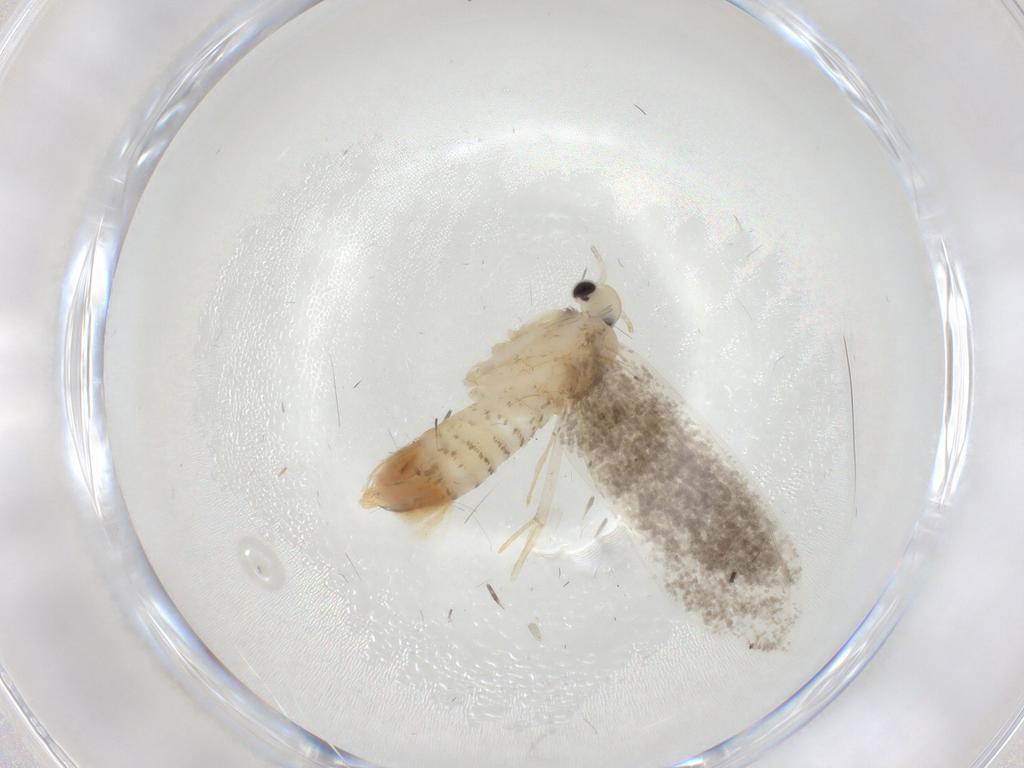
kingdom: Animalia
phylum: Arthropoda
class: Insecta
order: Lepidoptera
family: Psychidae
